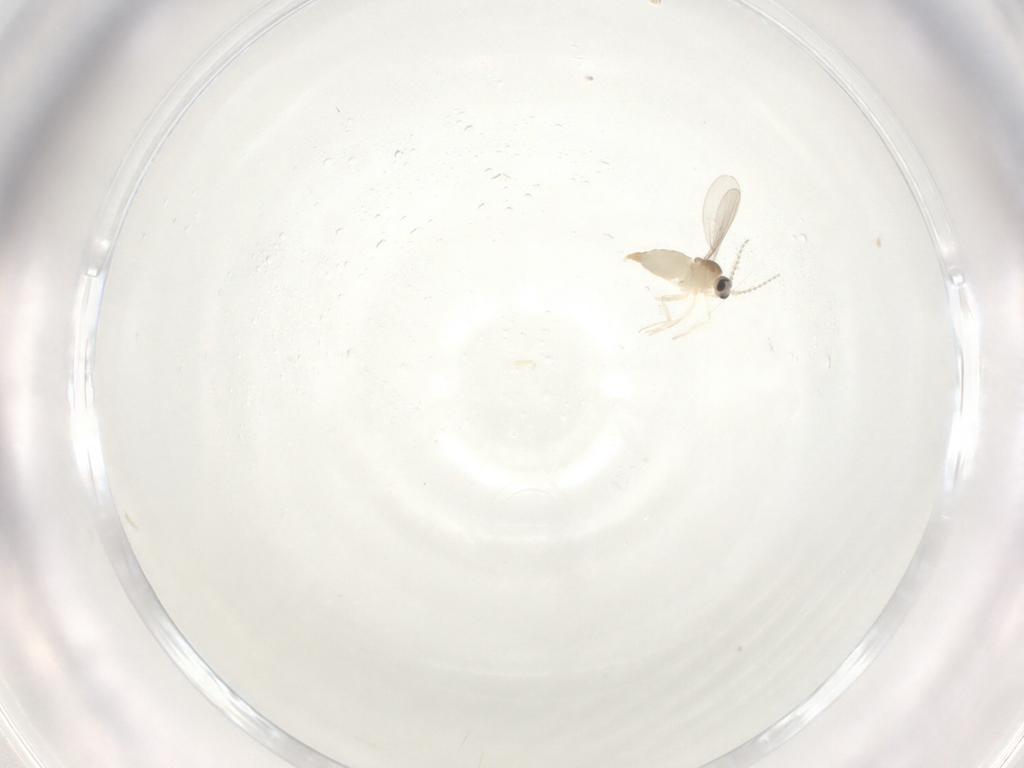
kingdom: Animalia
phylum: Arthropoda
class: Insecta
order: Diptera
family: Cecidomyiidae
